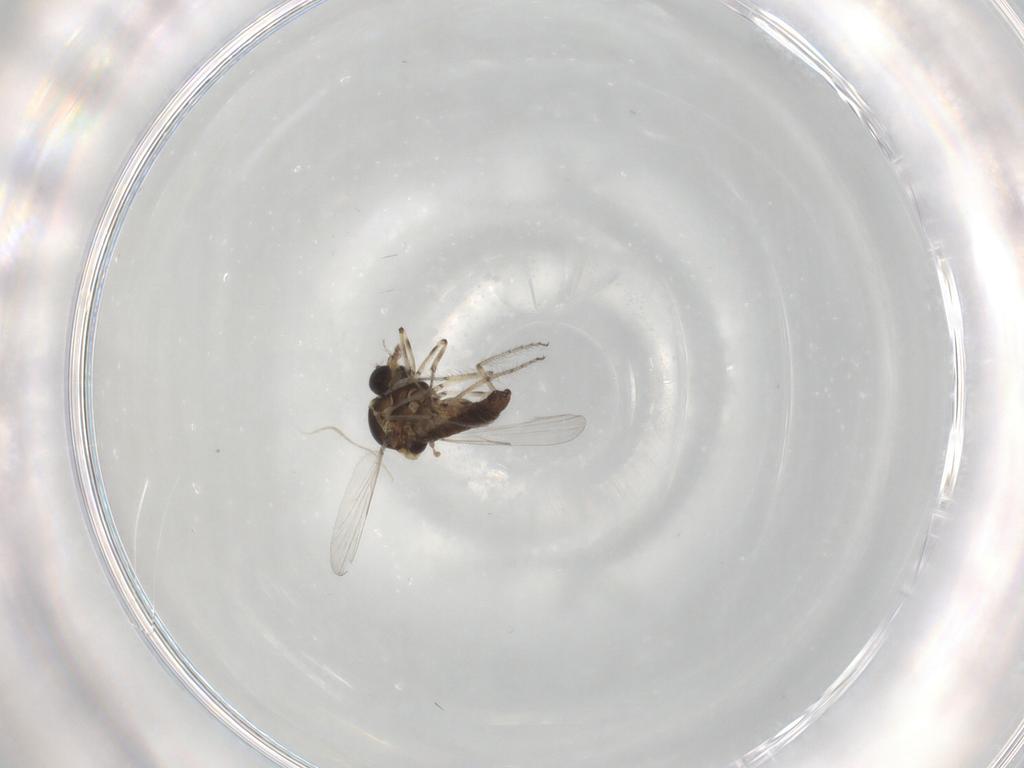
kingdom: Animalia
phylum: Arthropoda
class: Insecta
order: Diptera
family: Ceratopogonidae
